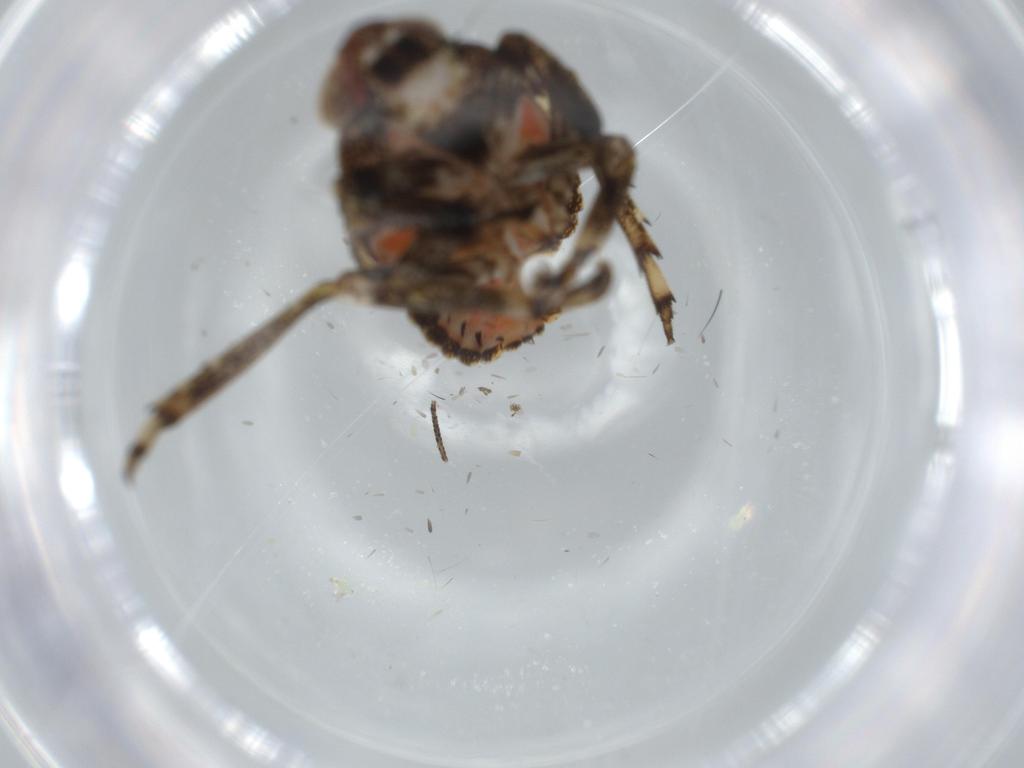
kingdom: Animalia
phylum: Arthropoda
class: Insecta
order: Hemiptera
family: Issidae
